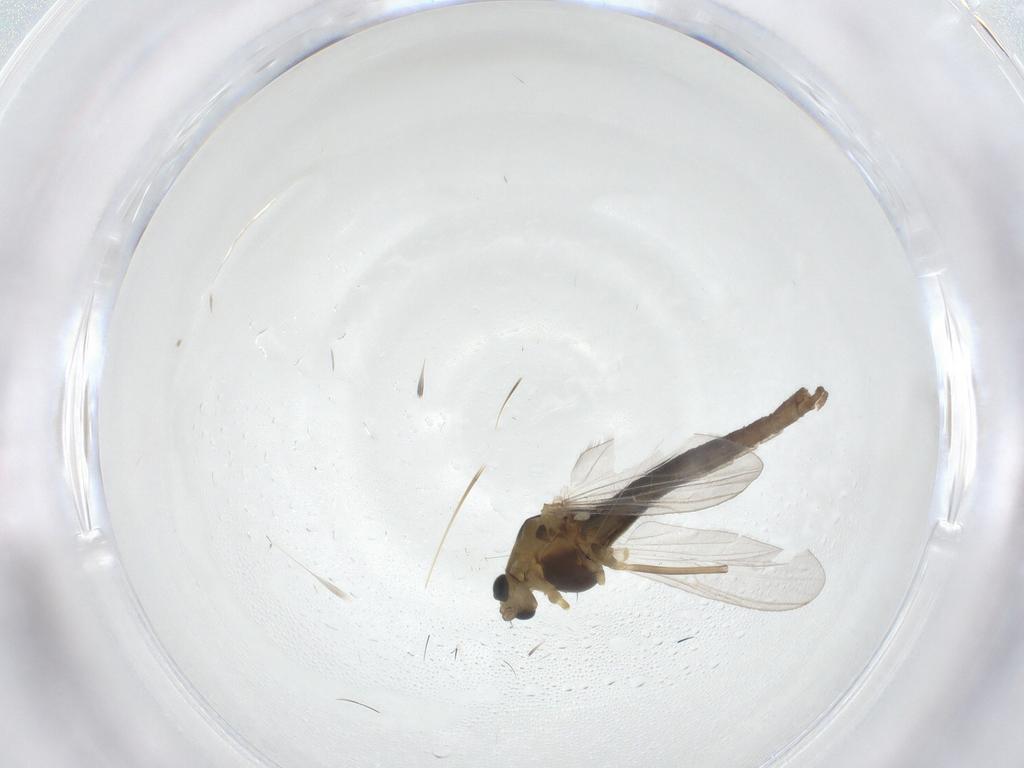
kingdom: Animalia
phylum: Arthropoda
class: Insecta
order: Diptera
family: Chironomidae
